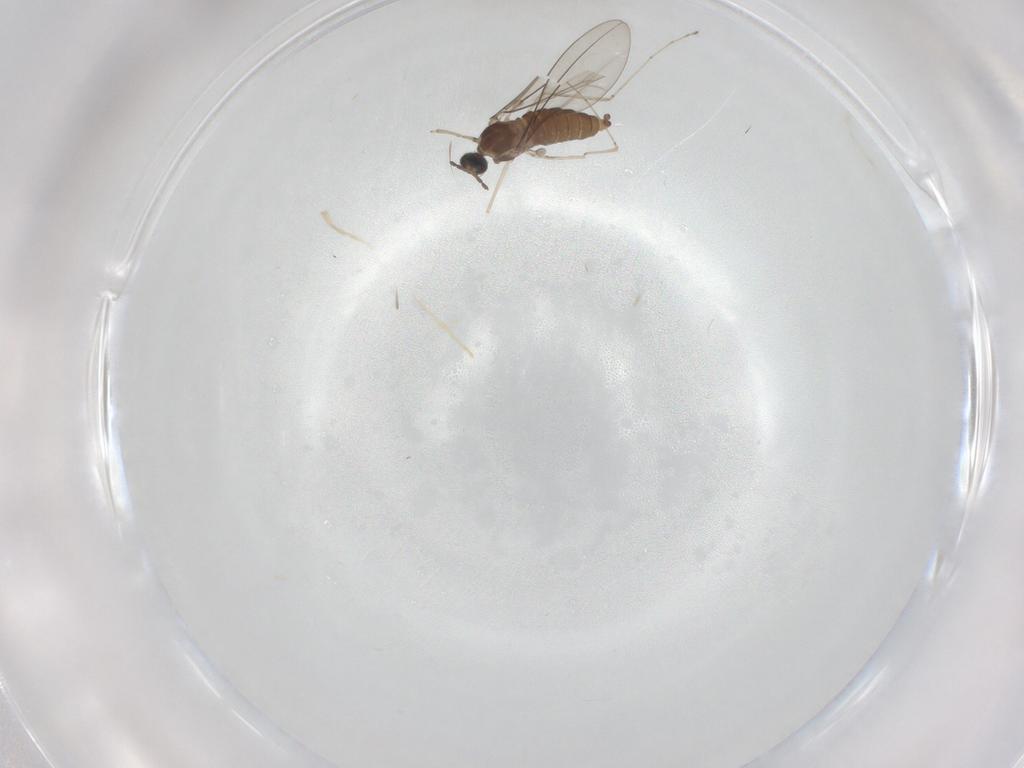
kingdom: Animalia
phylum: Arthropoda
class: Insecta
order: Diptera
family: Cecidomyiidae
